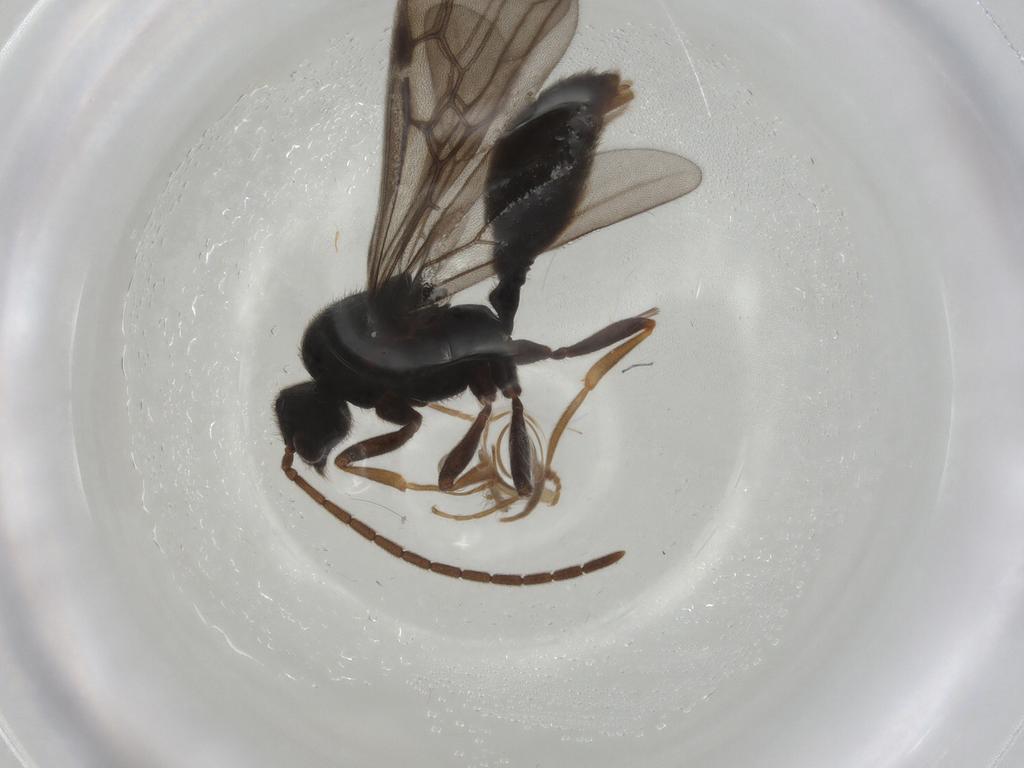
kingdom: Animalia
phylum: Arthropoda
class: Insecta
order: Hymenoptera
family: Formicidae
